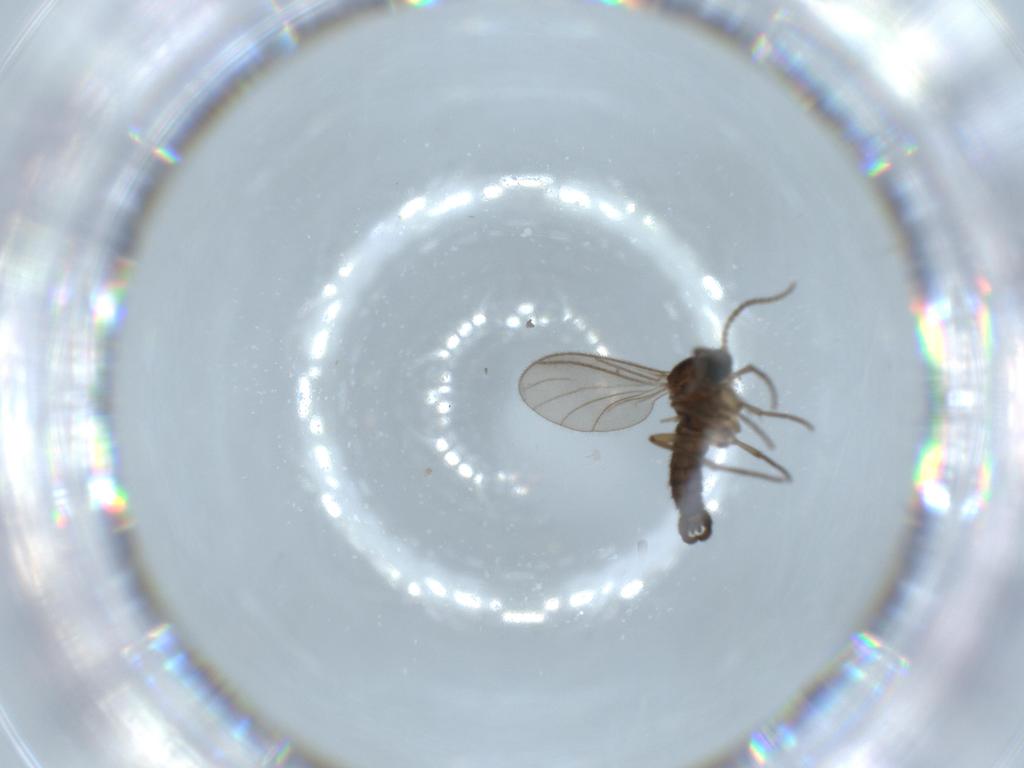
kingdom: Animalia
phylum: Arthropoda
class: Insecta
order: Diptera
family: Sciaridae
